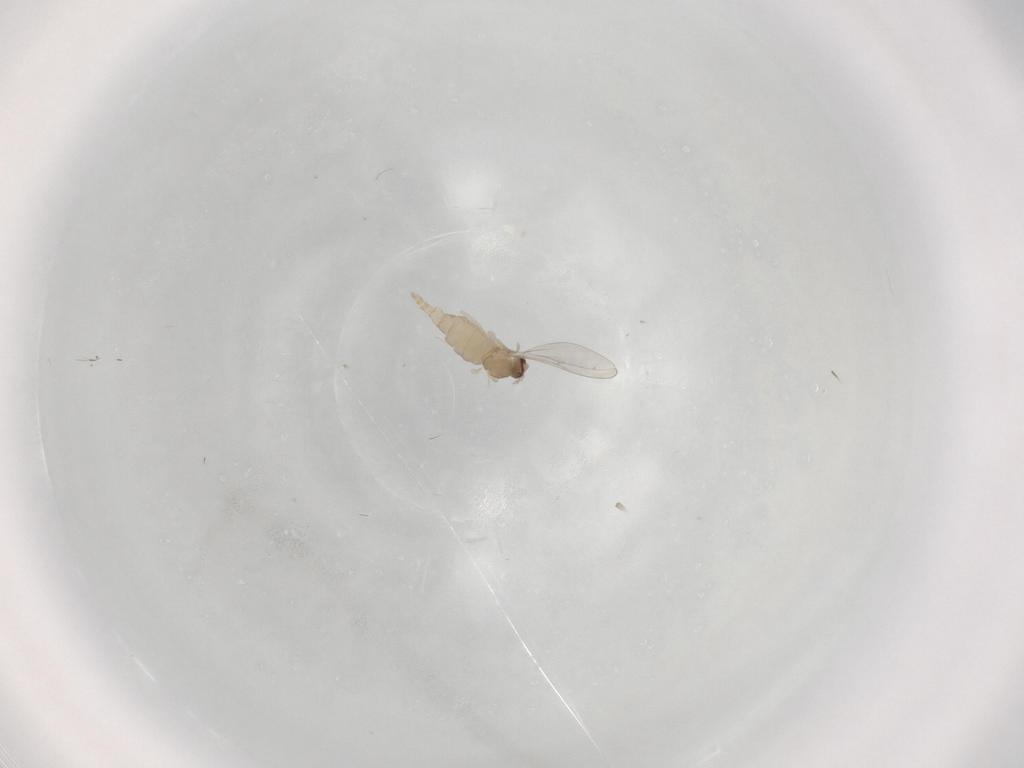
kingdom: Animalia
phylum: Arthropoda
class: Insecta
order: Diptera
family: Cecidomyiidae
